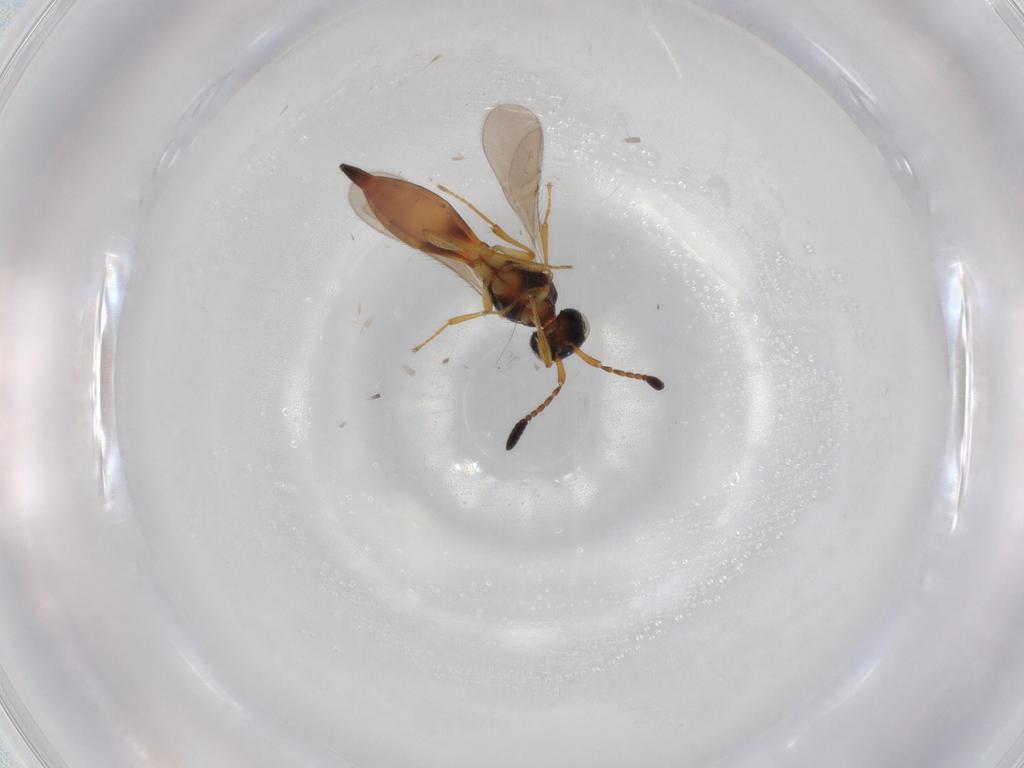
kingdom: Animalia
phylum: Arthropoda
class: Insecta
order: Hymenoptera
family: Scelionidae
